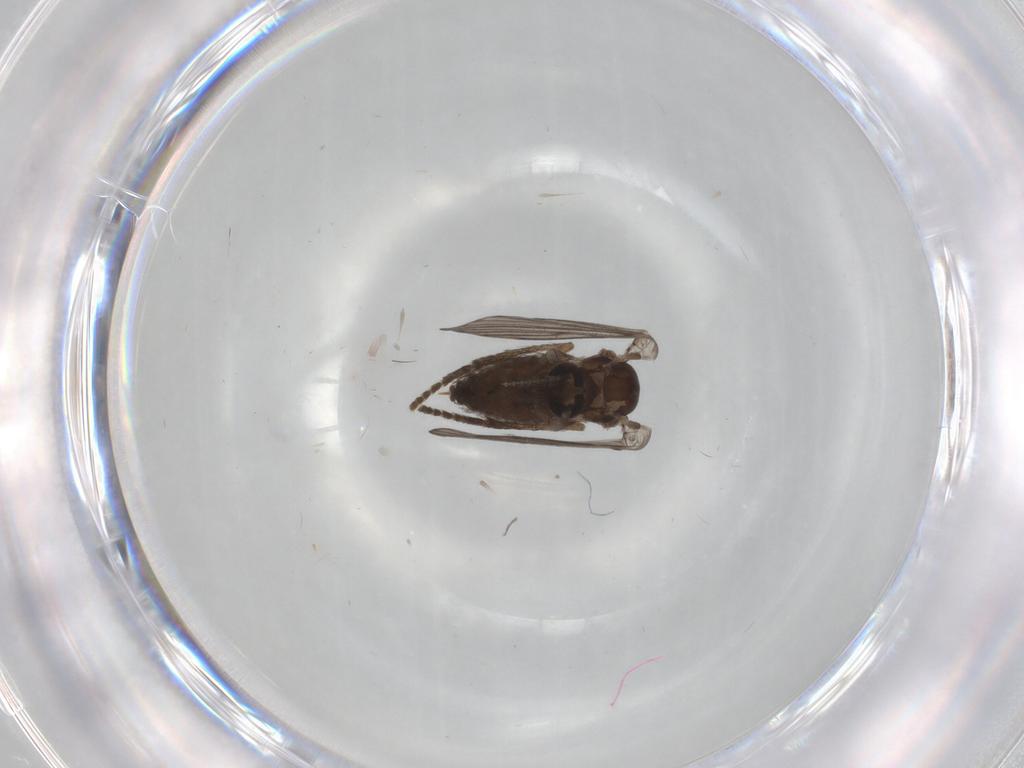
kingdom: Animalia
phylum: Arthropoda
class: Insecta
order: Diptera
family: Psychodidae
